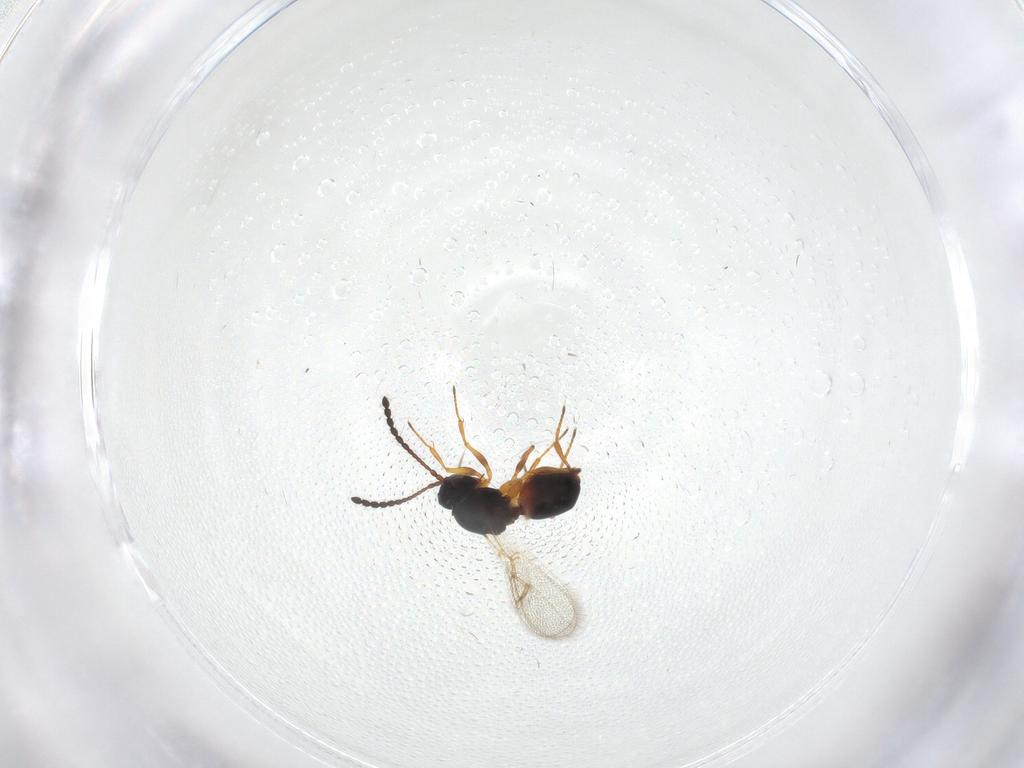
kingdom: Animalia
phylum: Arthropoda
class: Insecta
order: Hymenoptera
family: Figitidae
